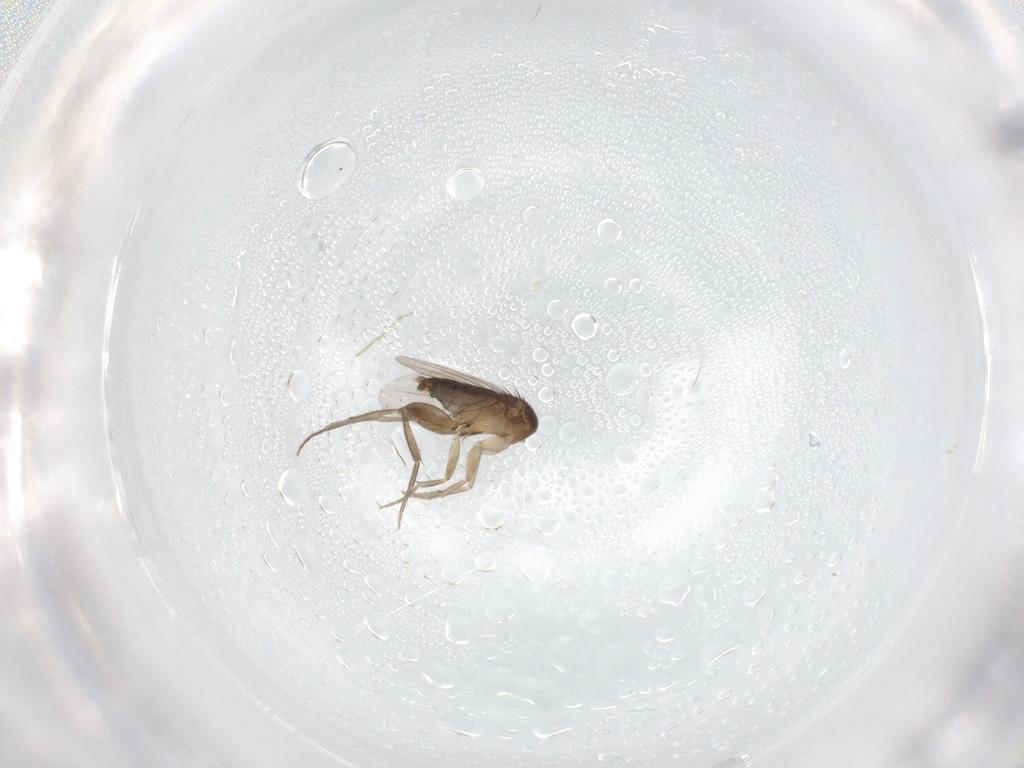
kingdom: Animalia
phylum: Arthropoda
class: Insecta
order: Diptera
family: Phoridae
